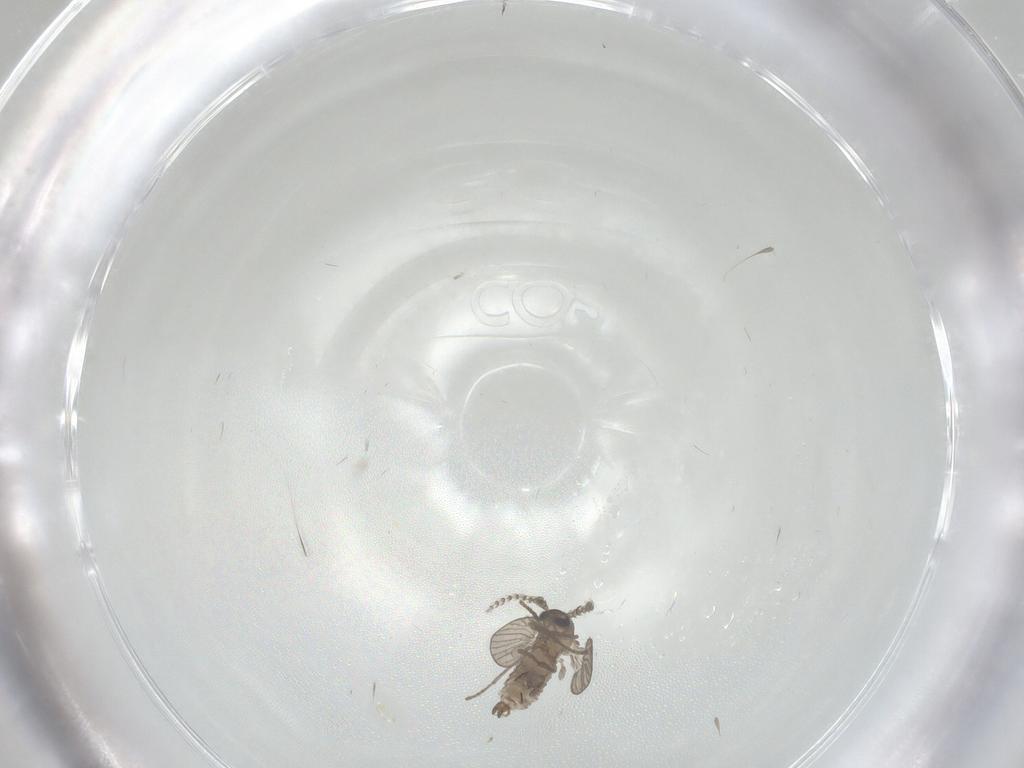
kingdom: Animalia
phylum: Arthropoda
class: Insecta
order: Diptera
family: Psychodidae
